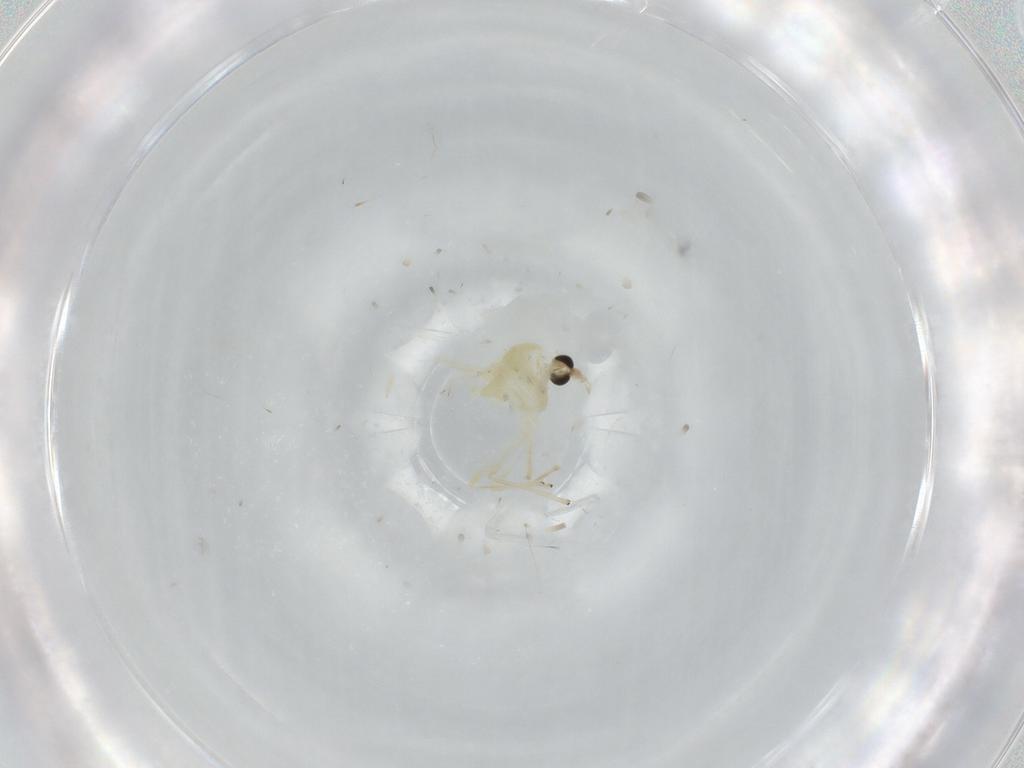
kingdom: Animalia
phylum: Arthropoda
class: Insecta
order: Diptera
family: Chironomidae
